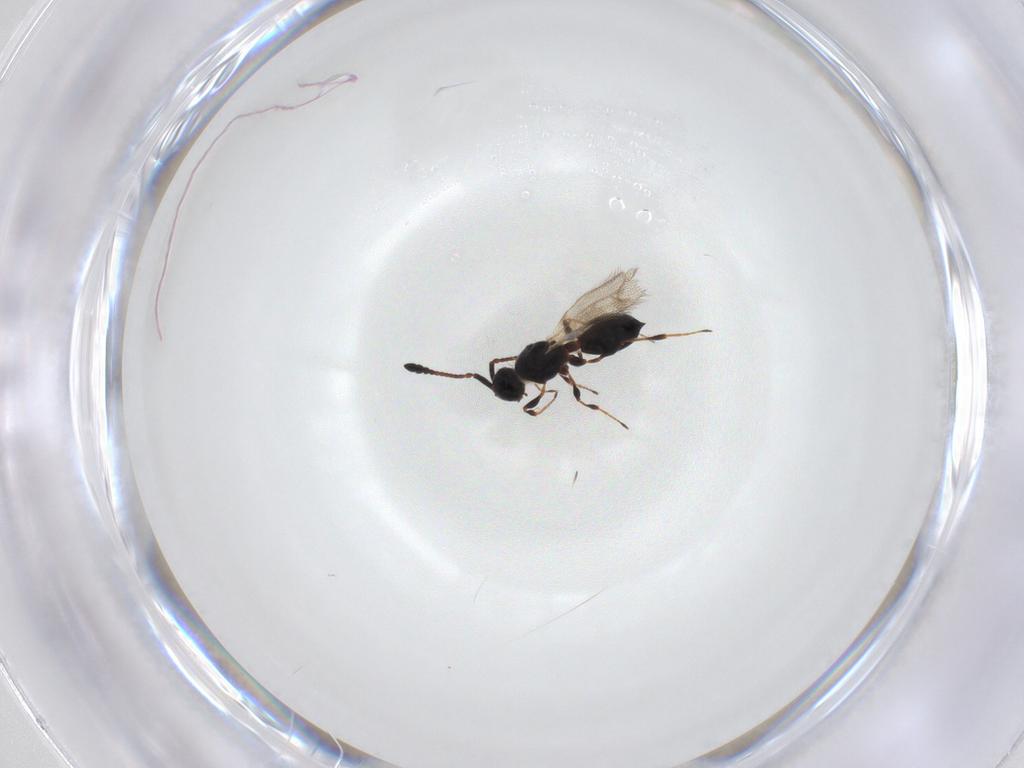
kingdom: Animalia
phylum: Arthropoda
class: Insecta
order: Hymenoptera
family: Diapriidae
